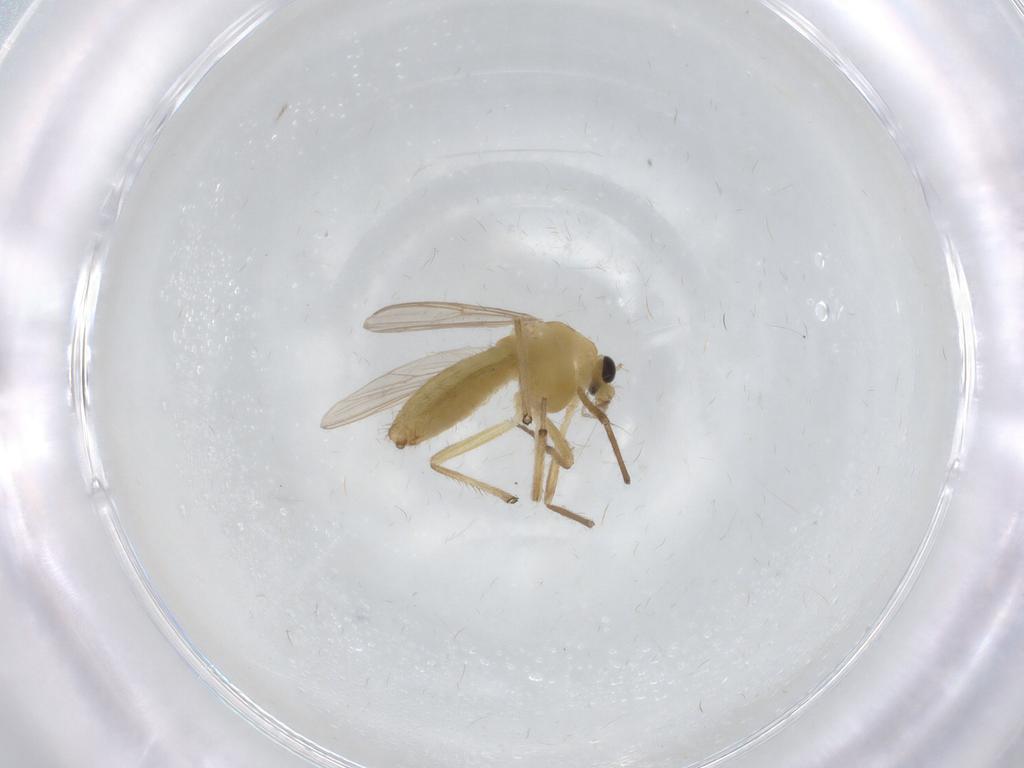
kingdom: Animalia
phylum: Arthropoda
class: Insecta
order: Diptera
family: Chironomidae
